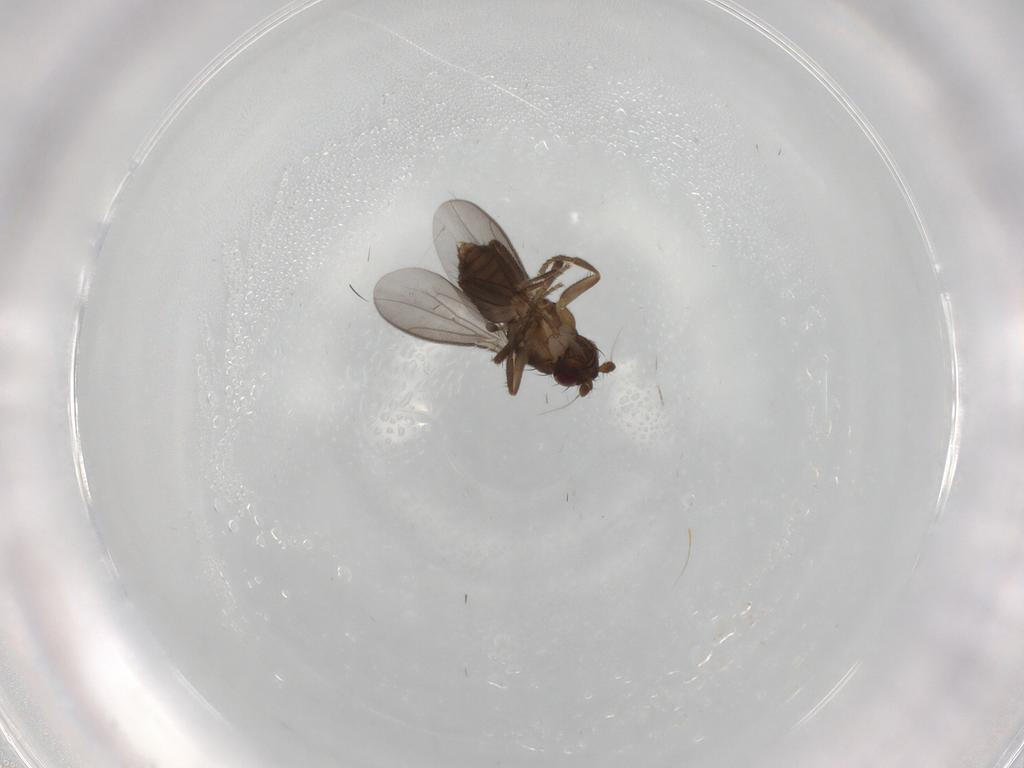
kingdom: Animalia
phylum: Arthropoda
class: Insecta
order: Diptera
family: Sphaeroceridae
